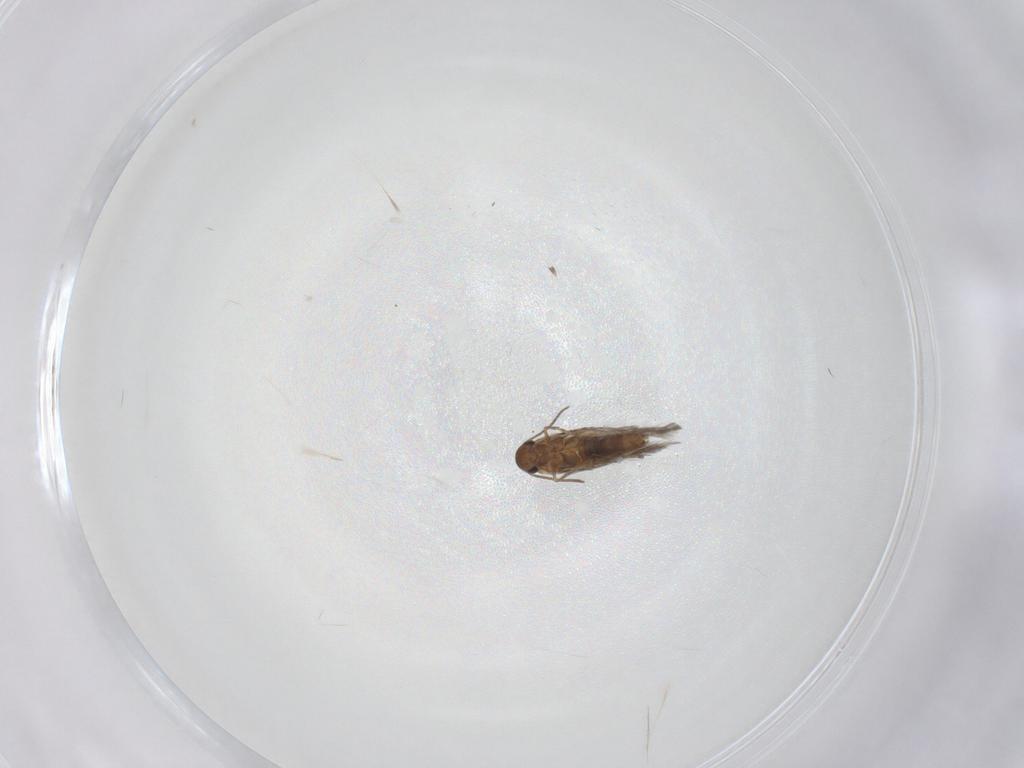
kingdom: Animalia
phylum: Arthropoda
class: Insecta
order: Lepidoptera
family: Heliozelidae
